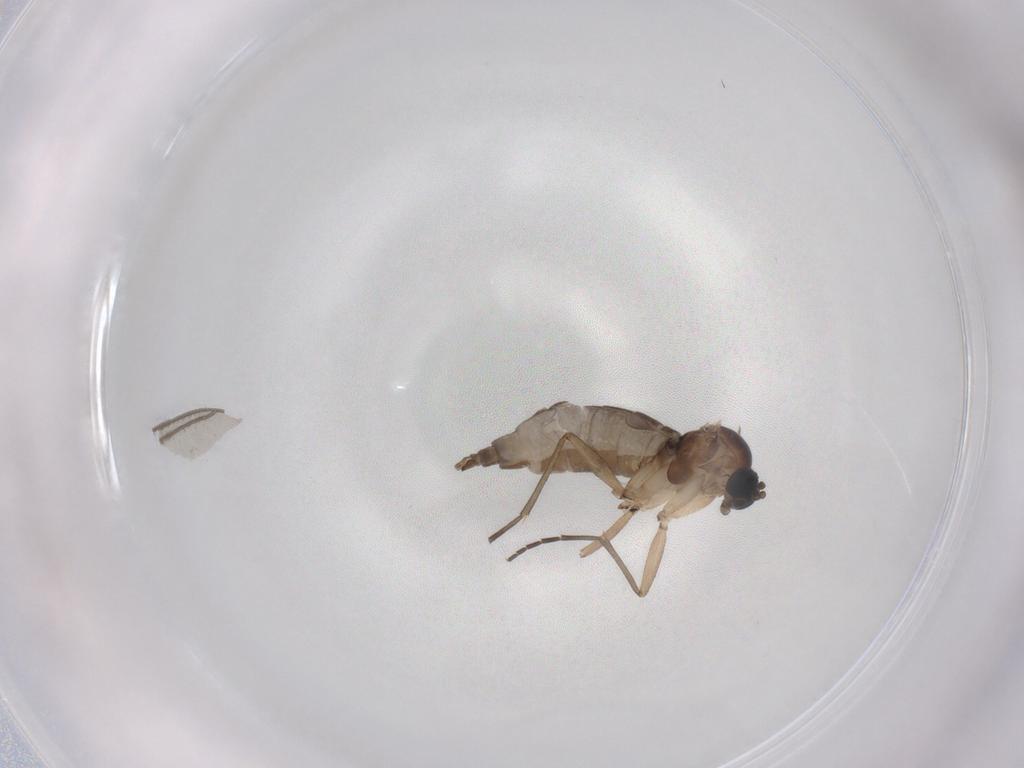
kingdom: Animalia
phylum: Arthropoda
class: Insecta
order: Diptera
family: Sciaridae
